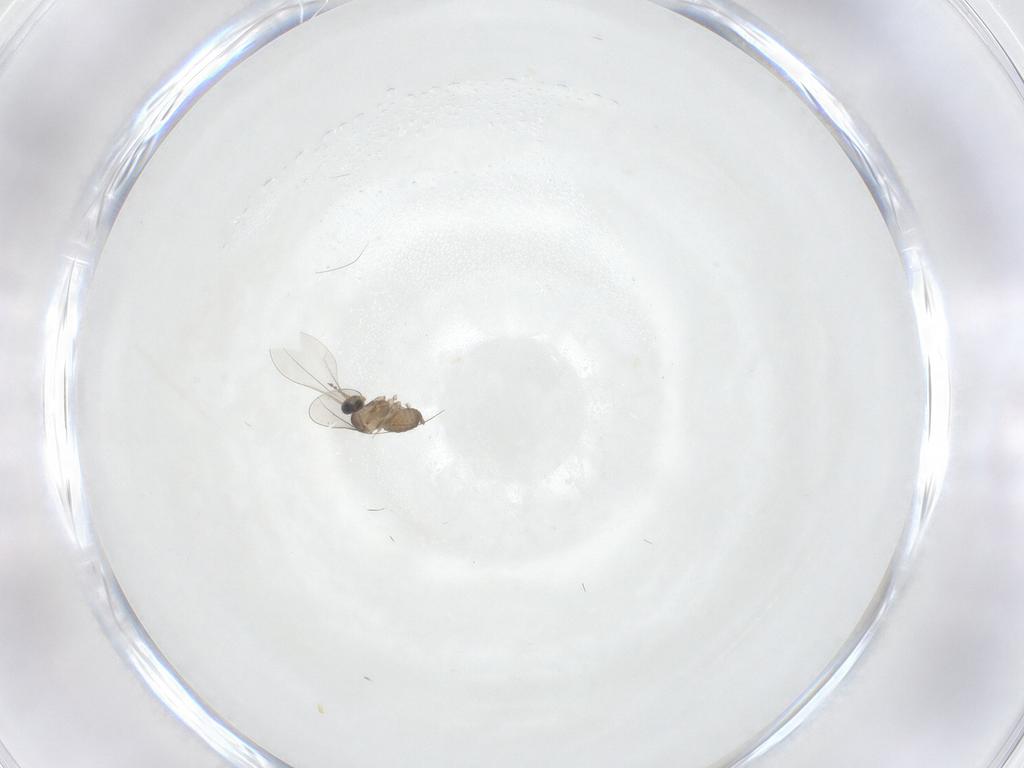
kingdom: Animalia
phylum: Arthropoda
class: Insecta
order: Diptera
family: Cecidomyiidae
